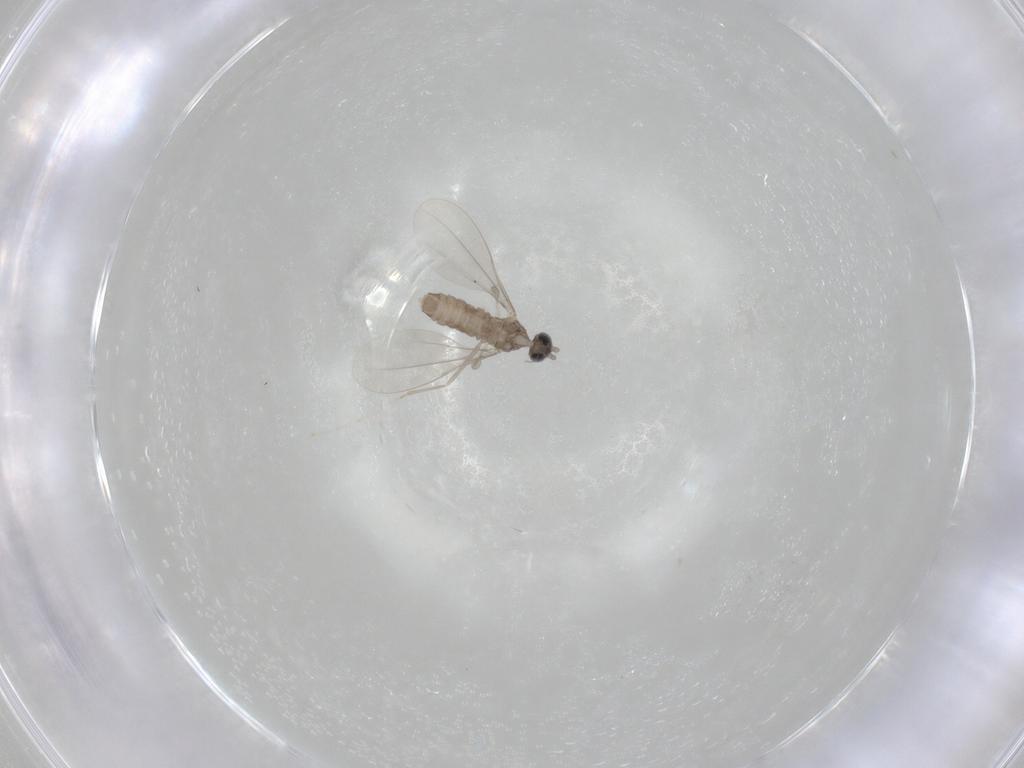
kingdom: Animalia
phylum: Arthropoda
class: Insecta
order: Diptera
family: Cecidomyiidae
